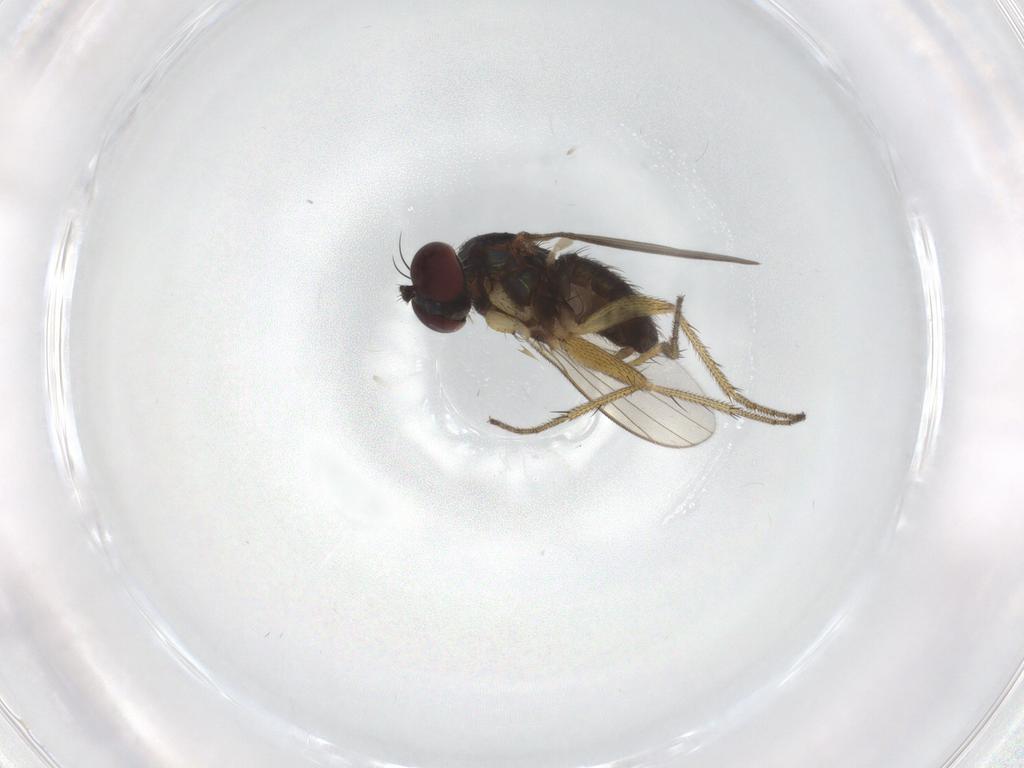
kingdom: Animalia
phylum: Arthropoda
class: Insecta
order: Diptera
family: Dolichopodidae
